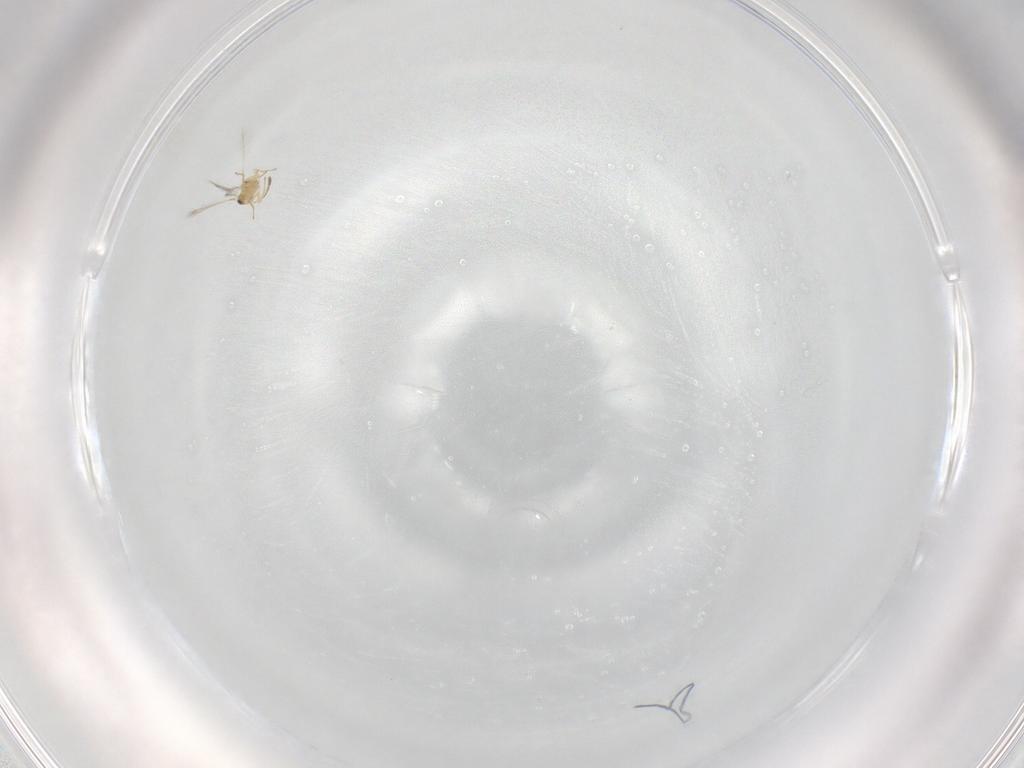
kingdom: Animalia
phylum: Arthropoda
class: Insecta
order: Hymenoptera
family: Mymaridae
